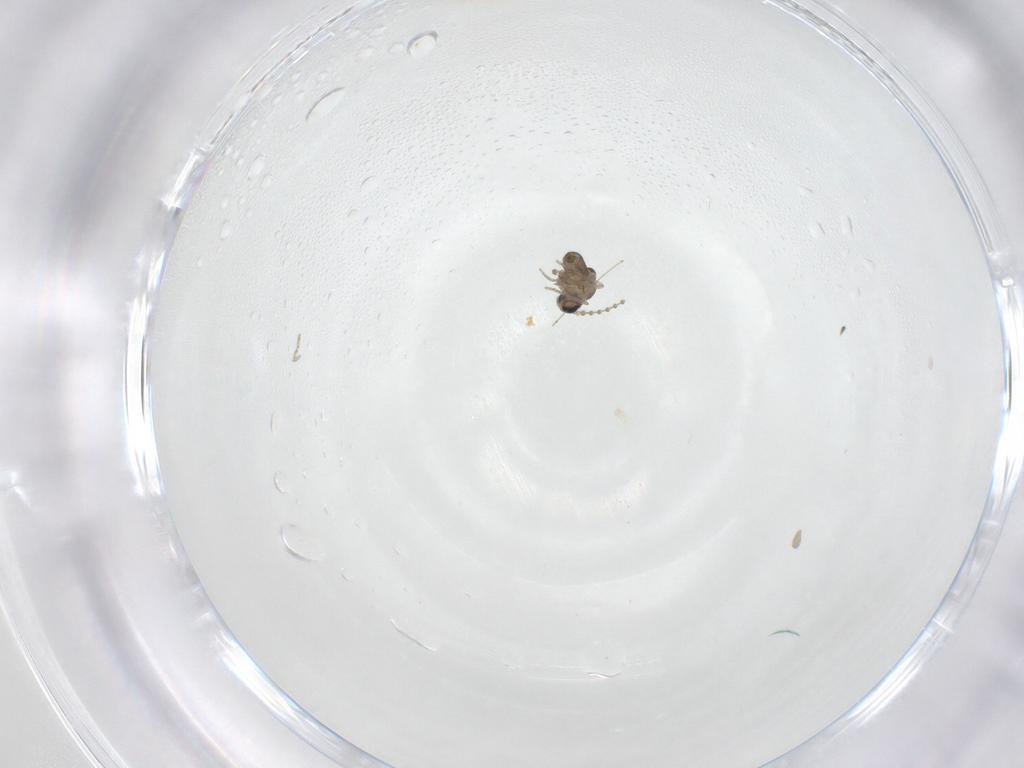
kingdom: Animalia
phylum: Arthropoda
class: Insecta
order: Diptera
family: Cecidomyiidae
